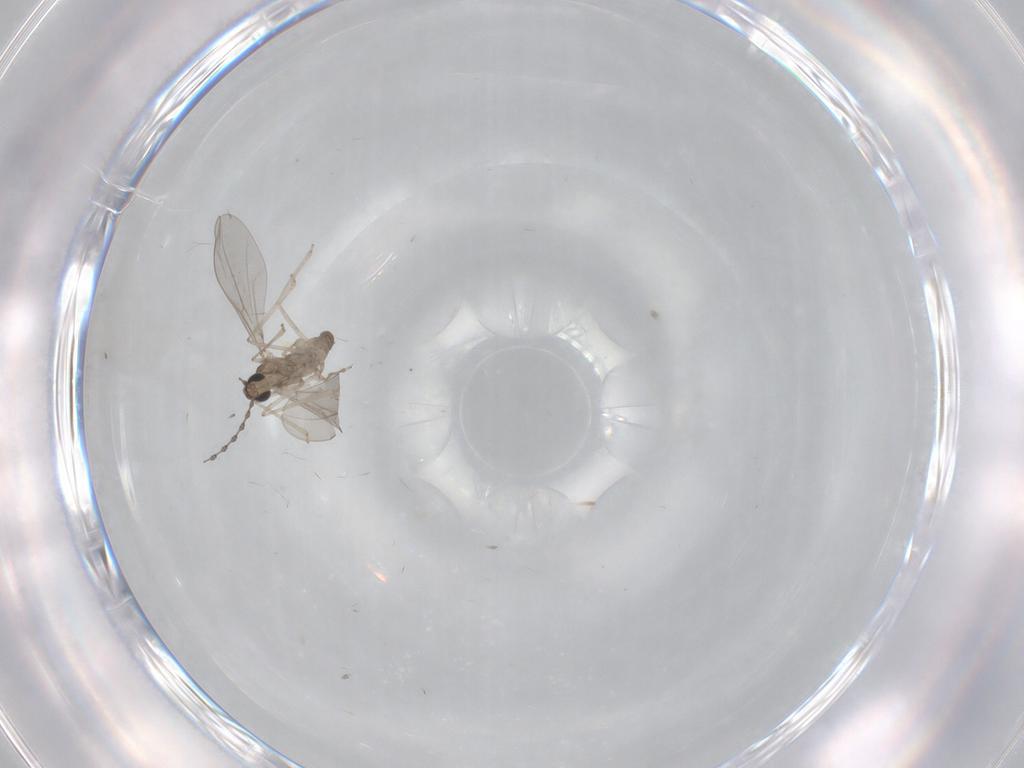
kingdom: Animalia
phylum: Arthropoda
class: Insecta
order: Diptera
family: Cecidomyiidae
